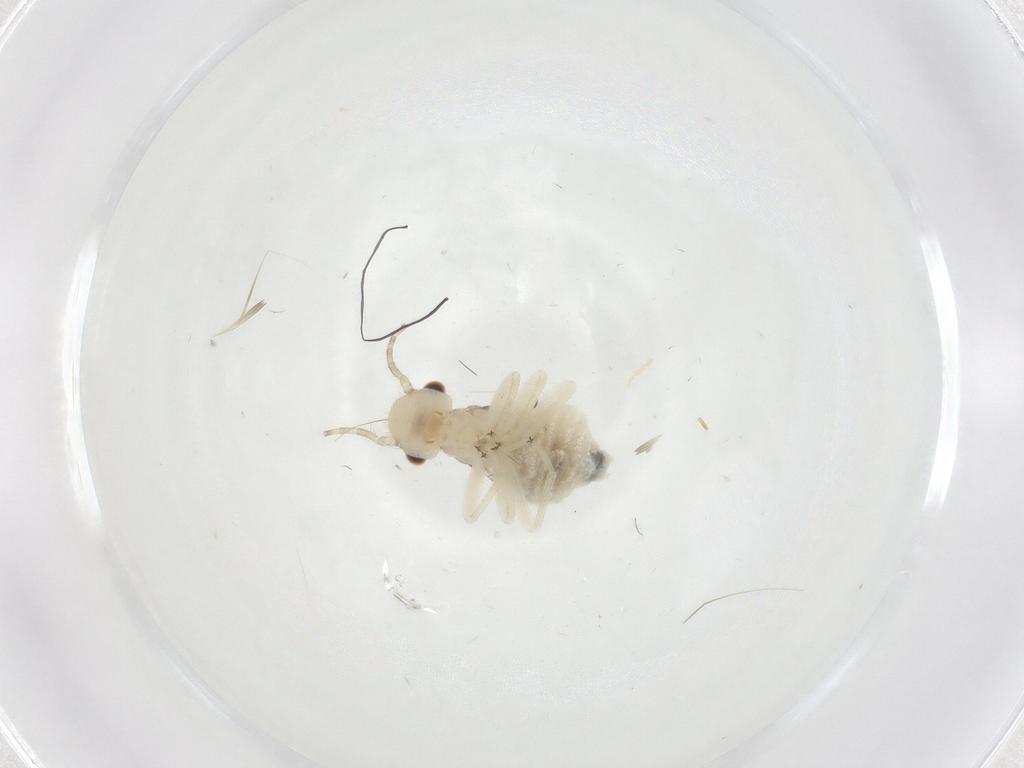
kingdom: Animalia
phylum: Arthropoda
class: Insecta
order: Psocodea
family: Amphipsocidae
